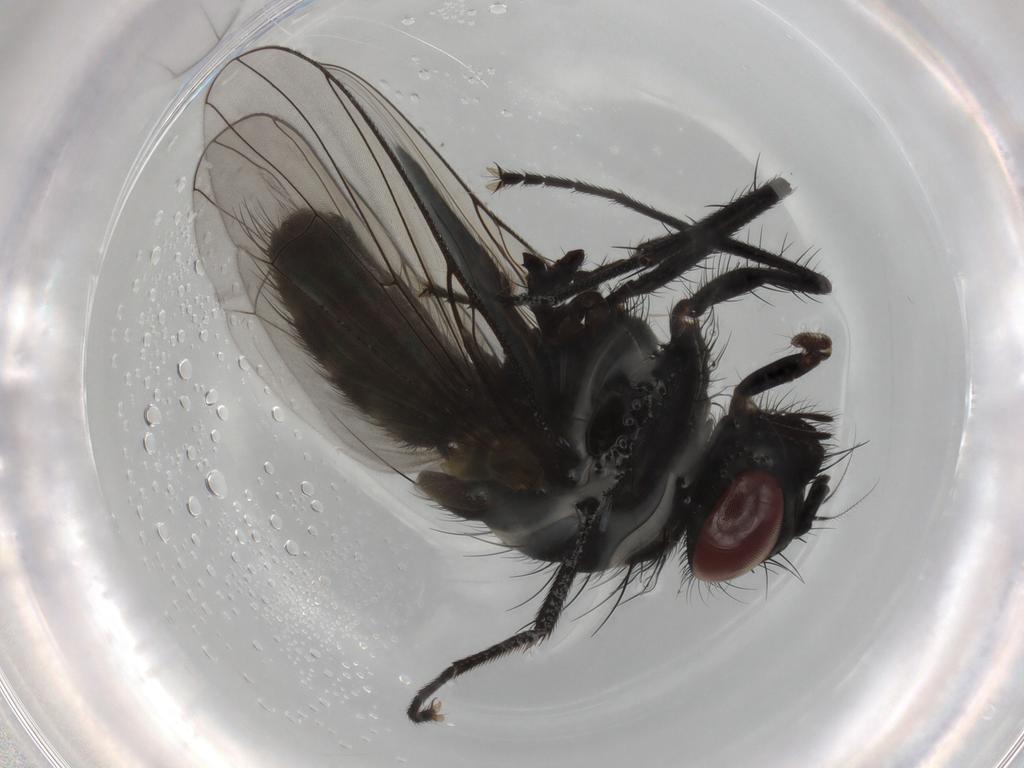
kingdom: Animalia
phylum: Arthropoda
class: Insecta
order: Diptera
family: Muscidae
